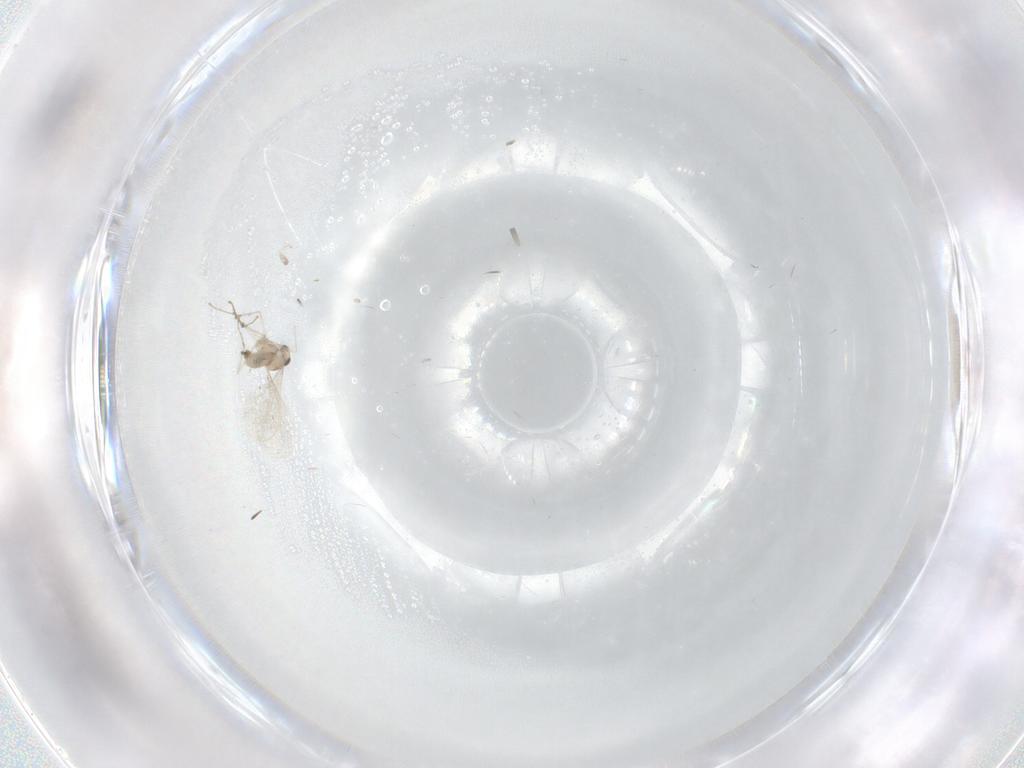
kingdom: Animalia
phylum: Arthropoda
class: Insecta
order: Diptera
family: Cecidomyiidae
